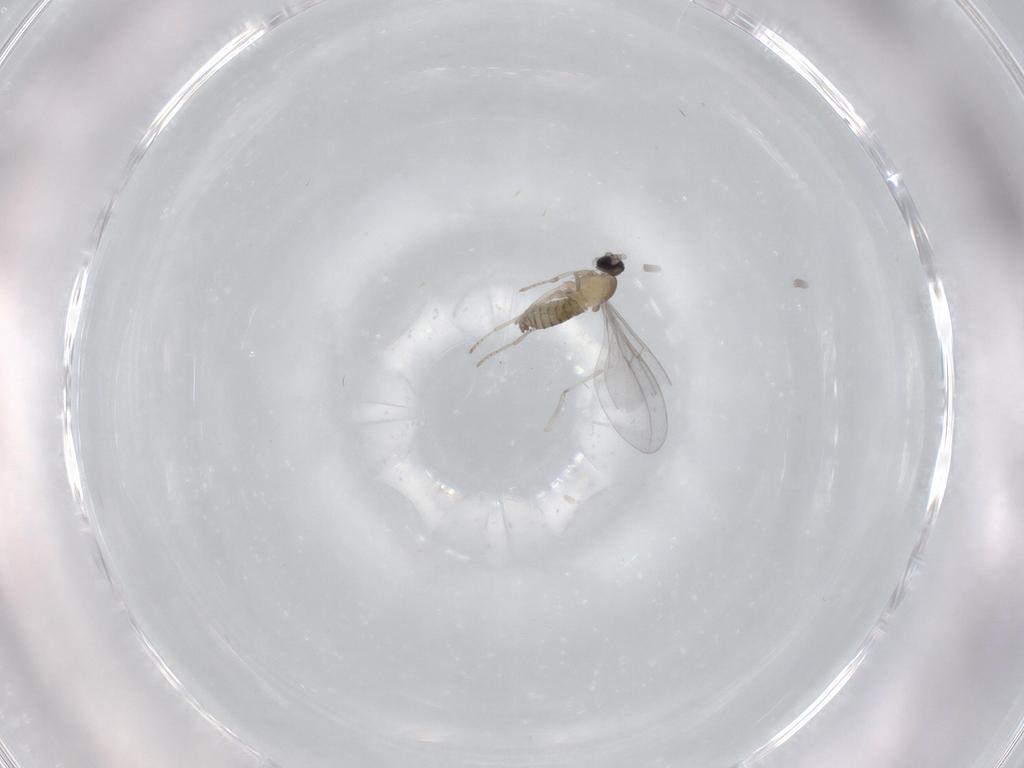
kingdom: Animalia
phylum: Arthropoda
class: Insecta
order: Diptera
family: Cecidomyiidae
